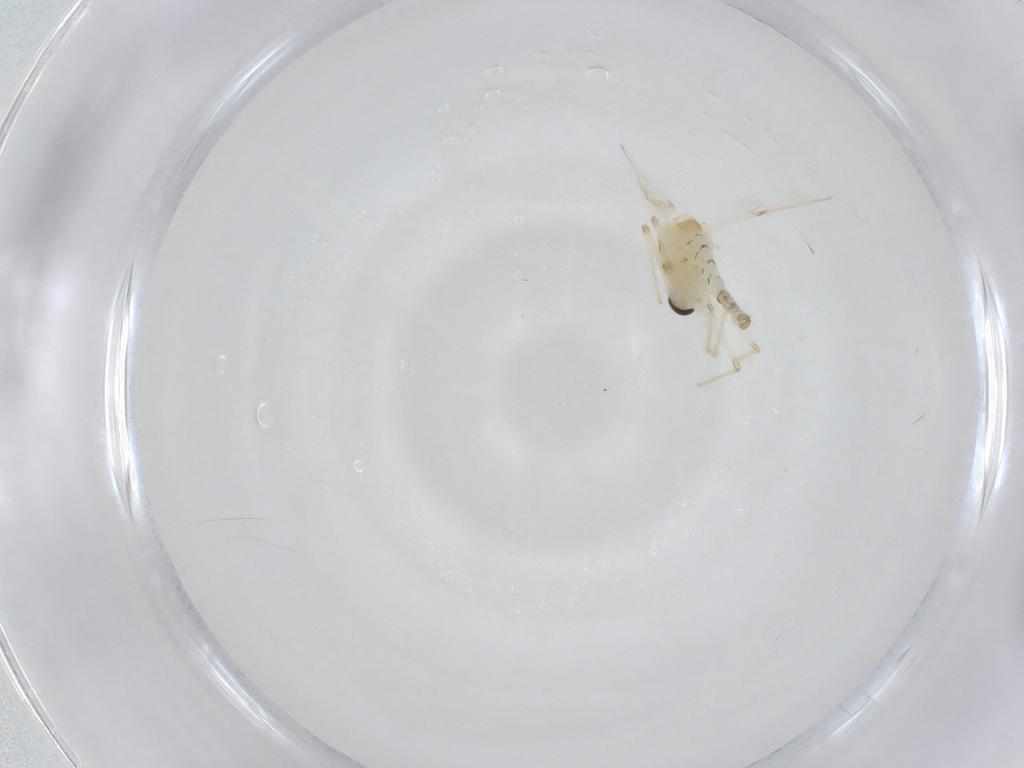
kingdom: Animalia
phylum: Arthropoda
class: Insecta
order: Diptera
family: Chironomidae
